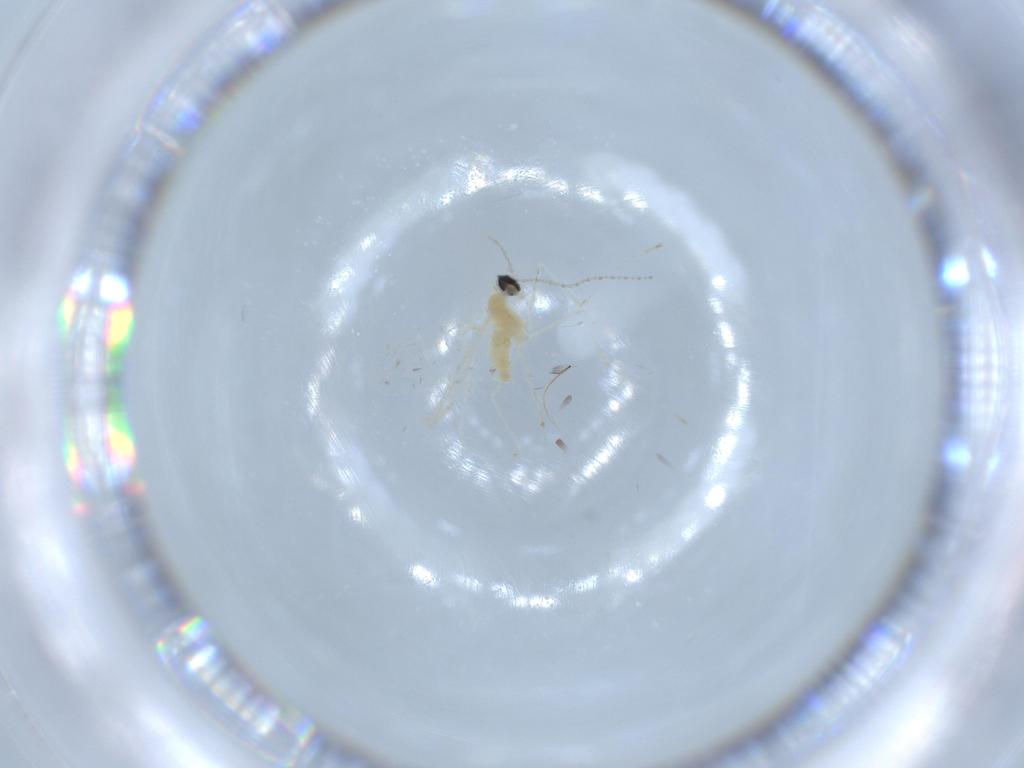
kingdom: Animalia
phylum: Arthropoda
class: Insecta
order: Diptera
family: Cecidomyiidae
